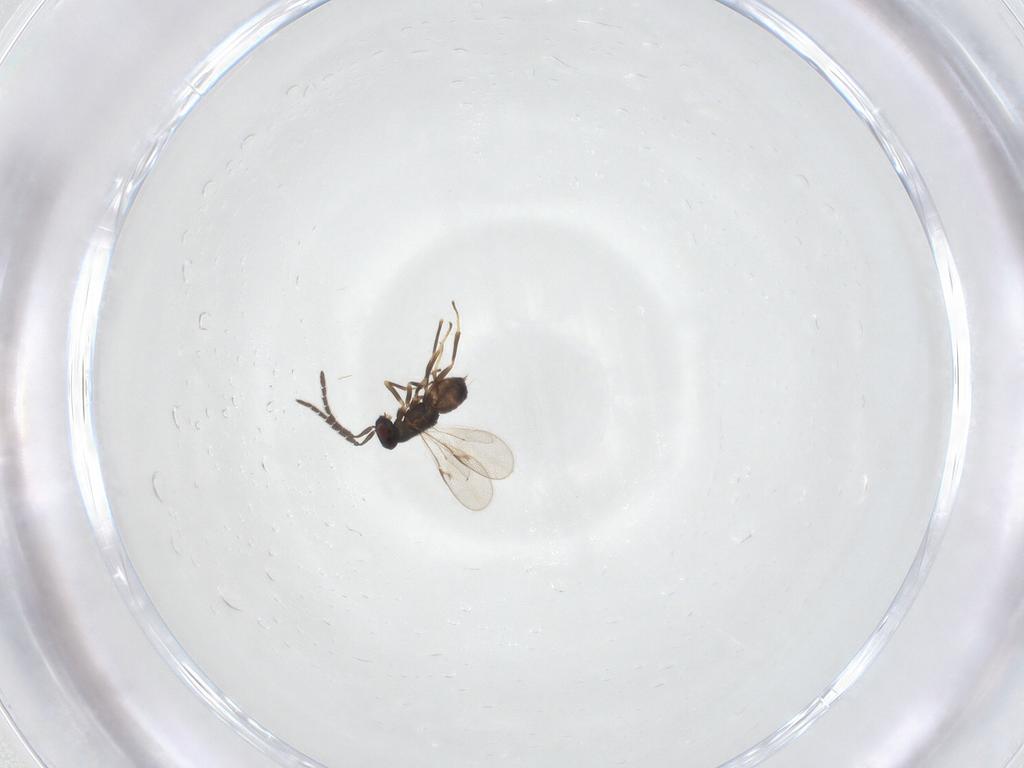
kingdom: Animalia
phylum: Arthropoda
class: Insecta
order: Hymenoptera
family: Encyrtidae
